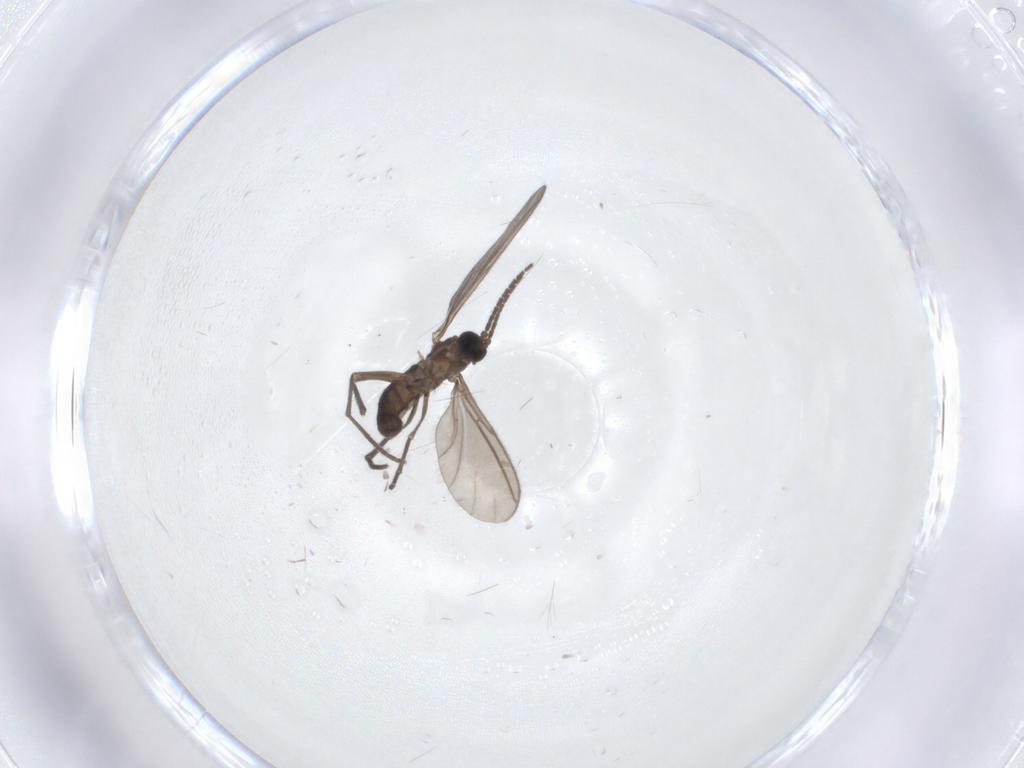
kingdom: Animalia
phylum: Arthropoda
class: Insecta
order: Diptera
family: Sciaridae
